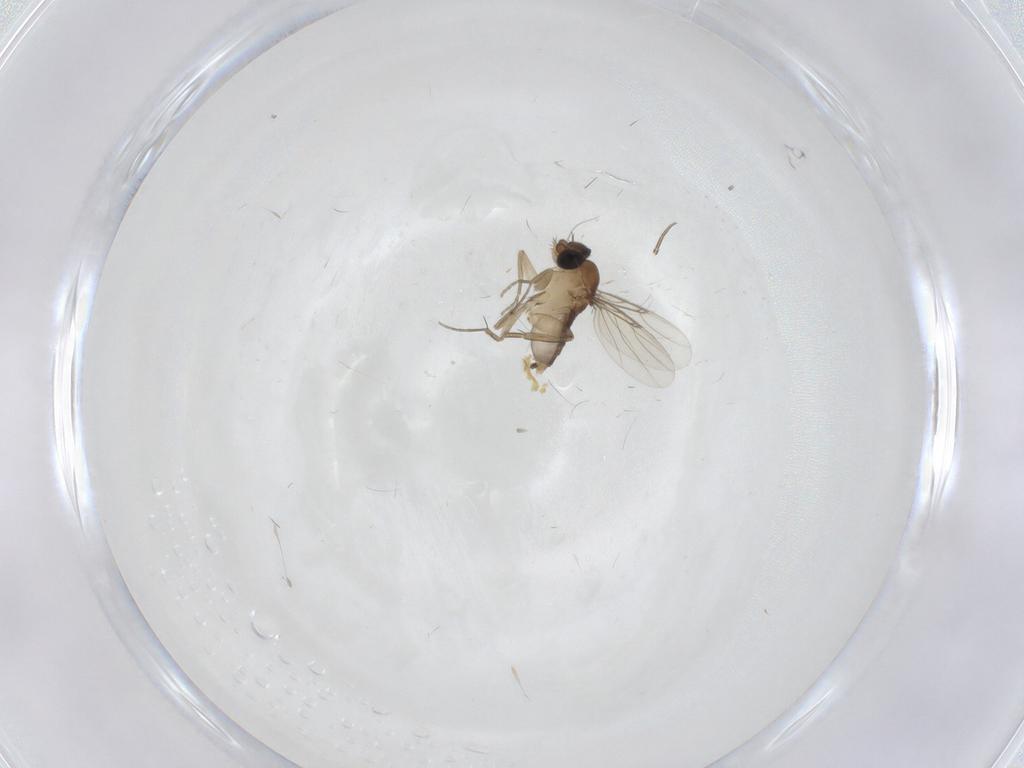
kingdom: Animalia
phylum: Arthropoda
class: Insecta
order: Diptera
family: Phoridae
